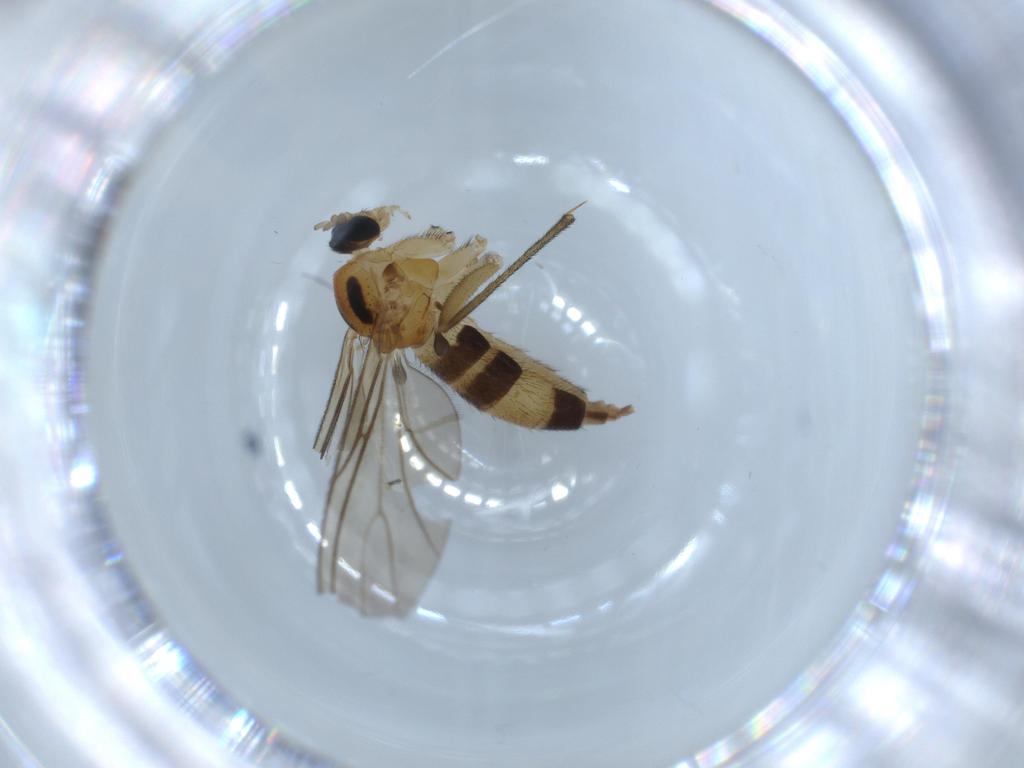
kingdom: Animalia
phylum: Arthropoda
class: Insecta
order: Diptera
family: Sciaridae
